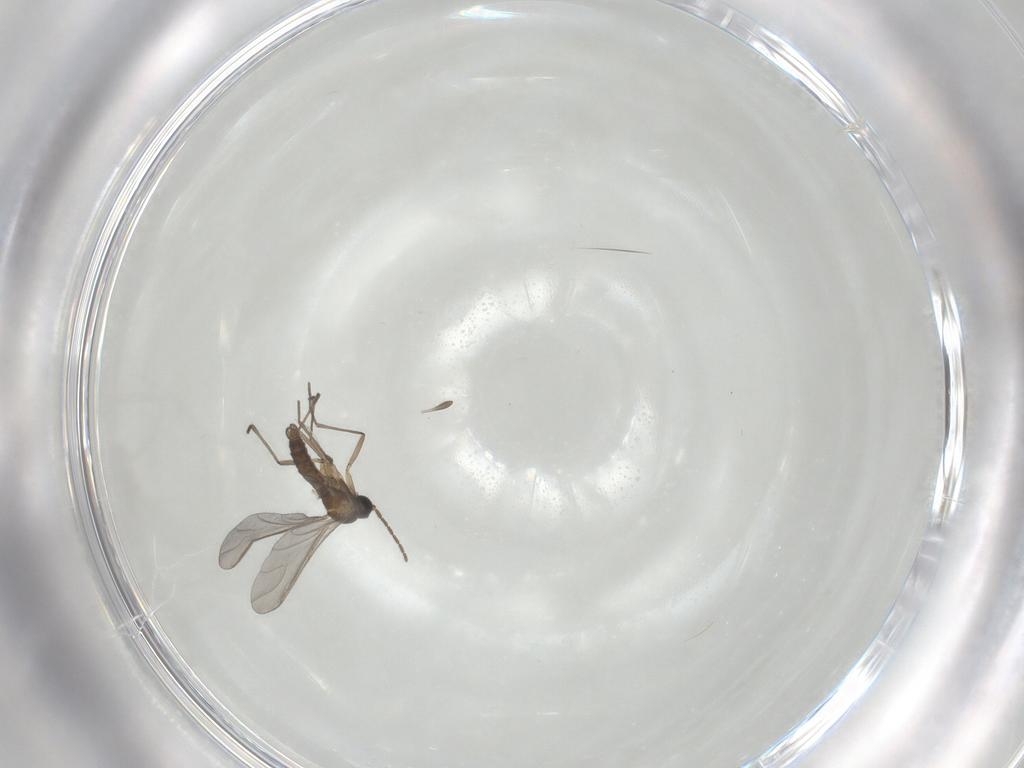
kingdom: Animalia
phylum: Arthropoda
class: Insecta
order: Diptera
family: Sciaridae
